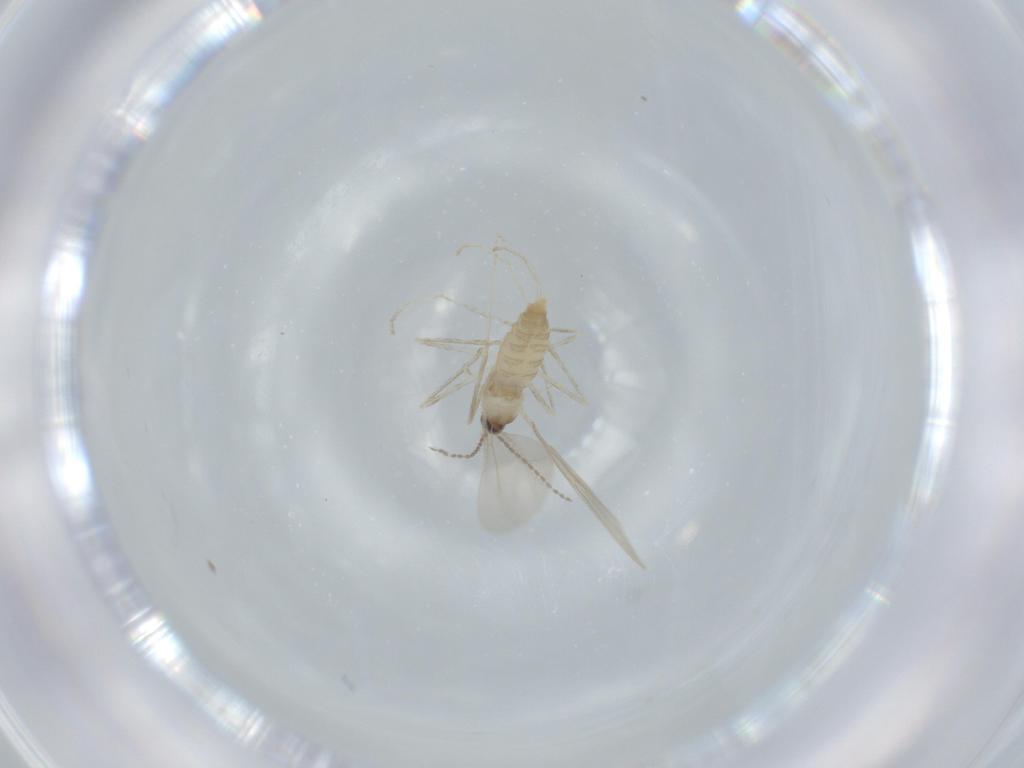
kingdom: Animalia
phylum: Arthropoda
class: Insecta
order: Diptera
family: Cecidomyiidae
